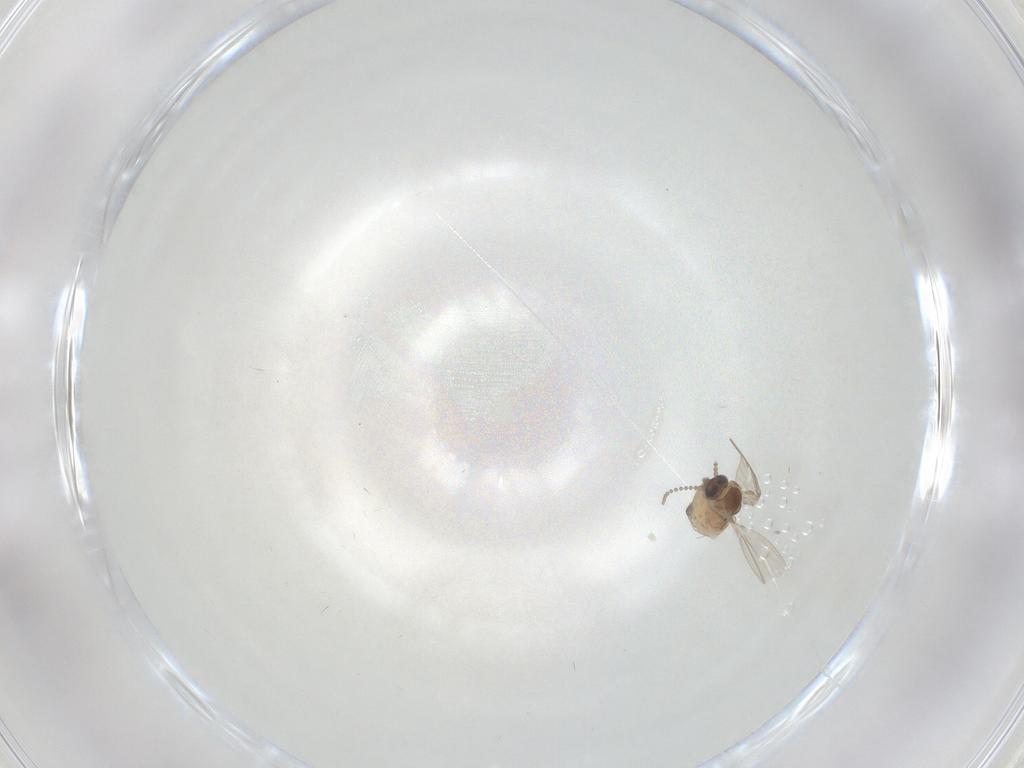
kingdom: Animalia
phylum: Arthropoda
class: Insecta
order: Diptera
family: Psychodidae
